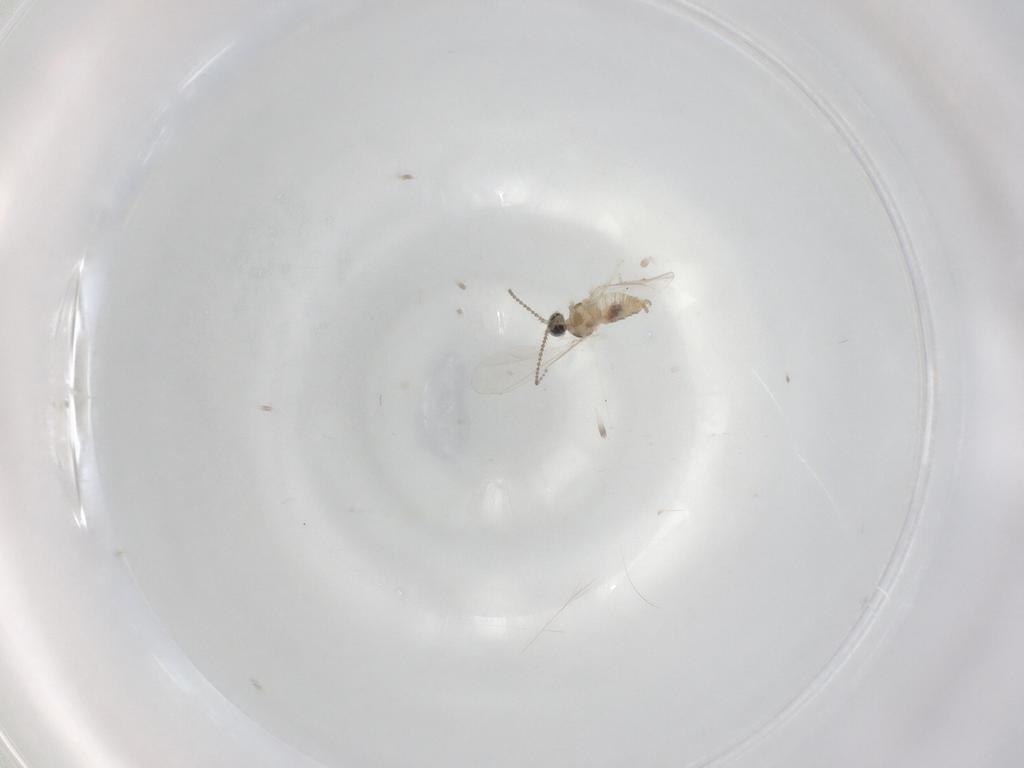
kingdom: Animalia
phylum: Arthropoda
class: Insecta
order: Diptera
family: Cecidomyiidae
